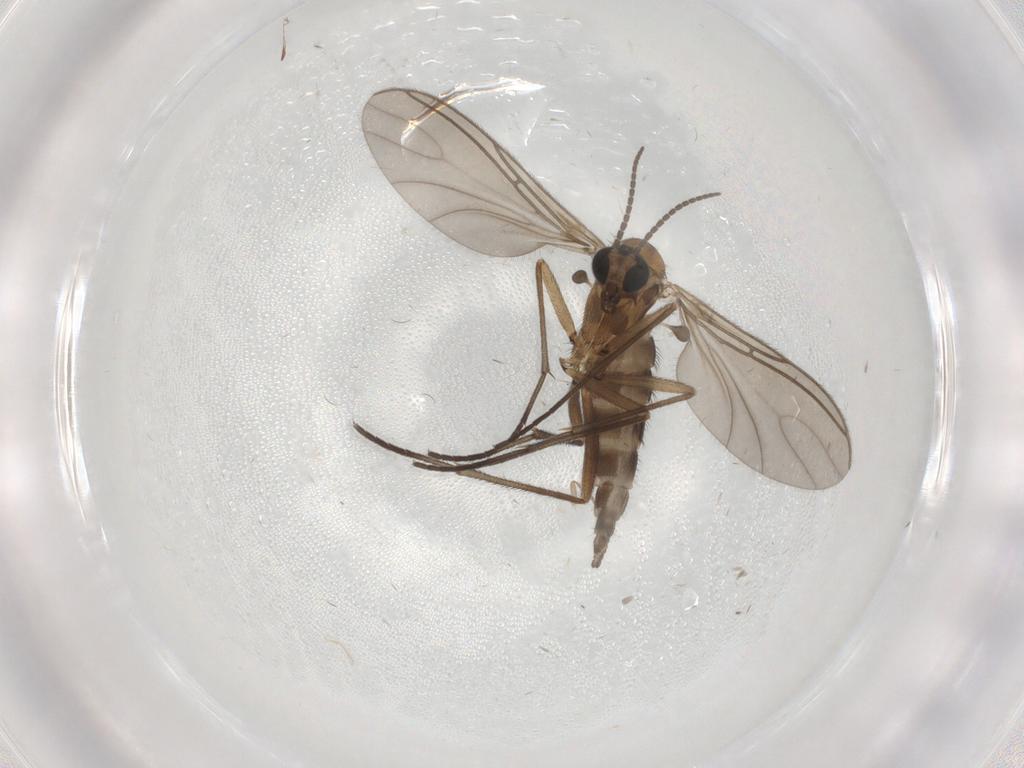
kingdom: Animalia
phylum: Arthropoda
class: Insecta
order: Diptera
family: Sciaridae
